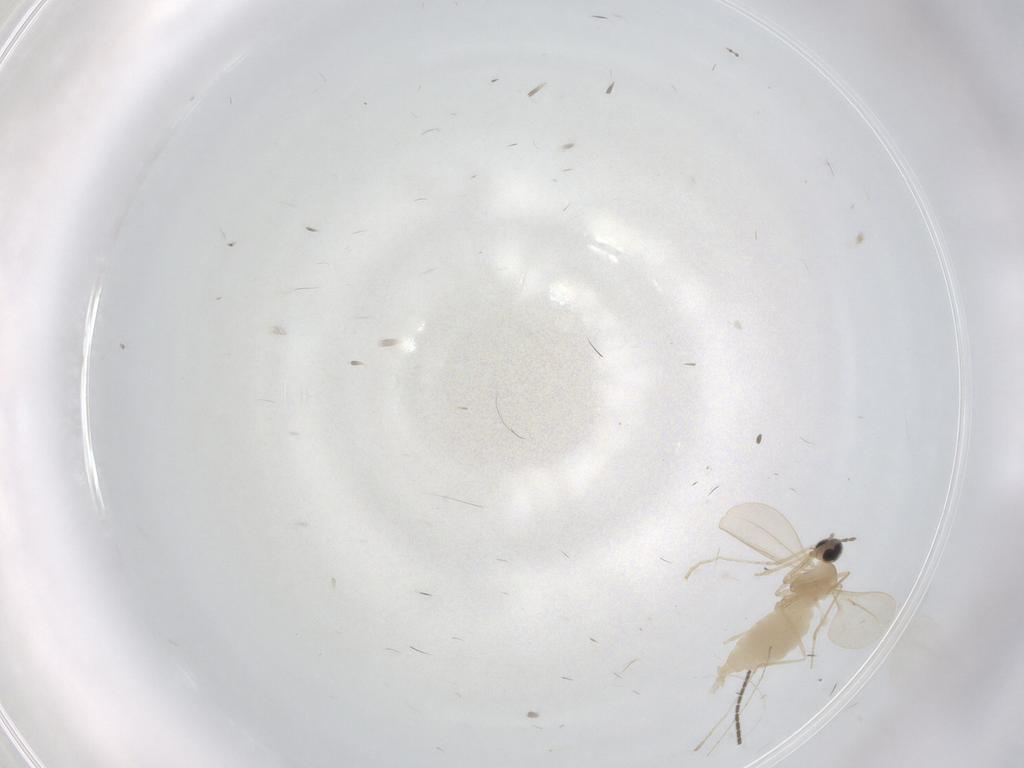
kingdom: Animalia
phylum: Arthropoda
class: Insecta
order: Diptera
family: Cecidomyiidae
